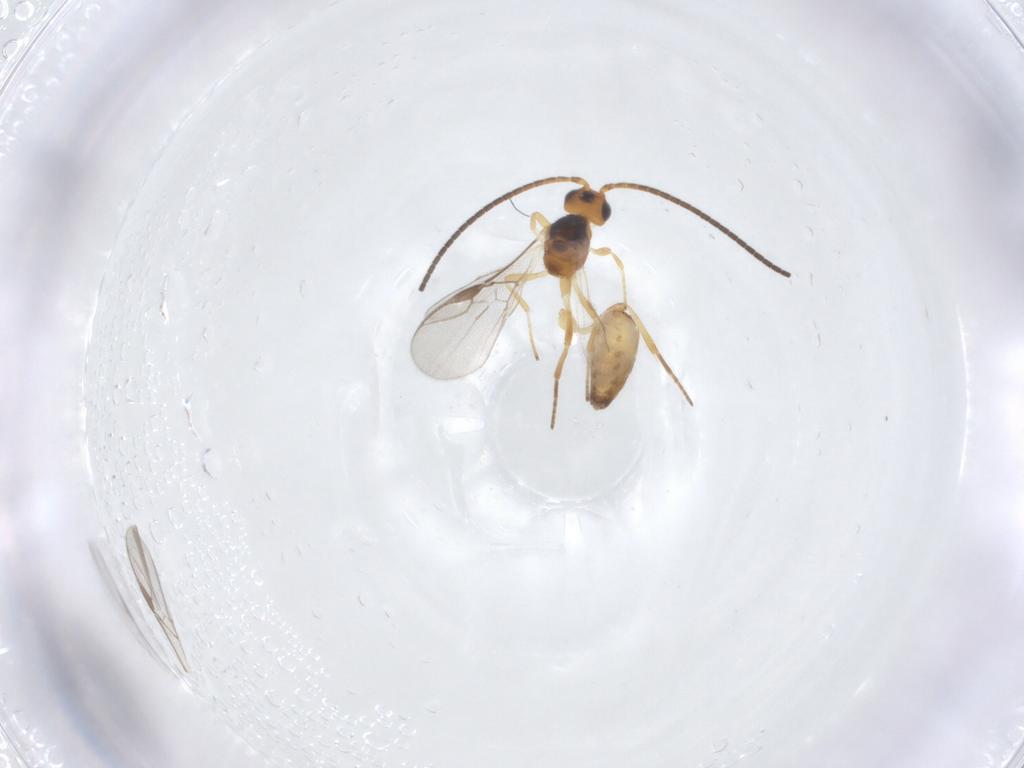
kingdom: Animalia
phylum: Arthropoda
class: Insecta
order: Hymenoptera
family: Braconidae
